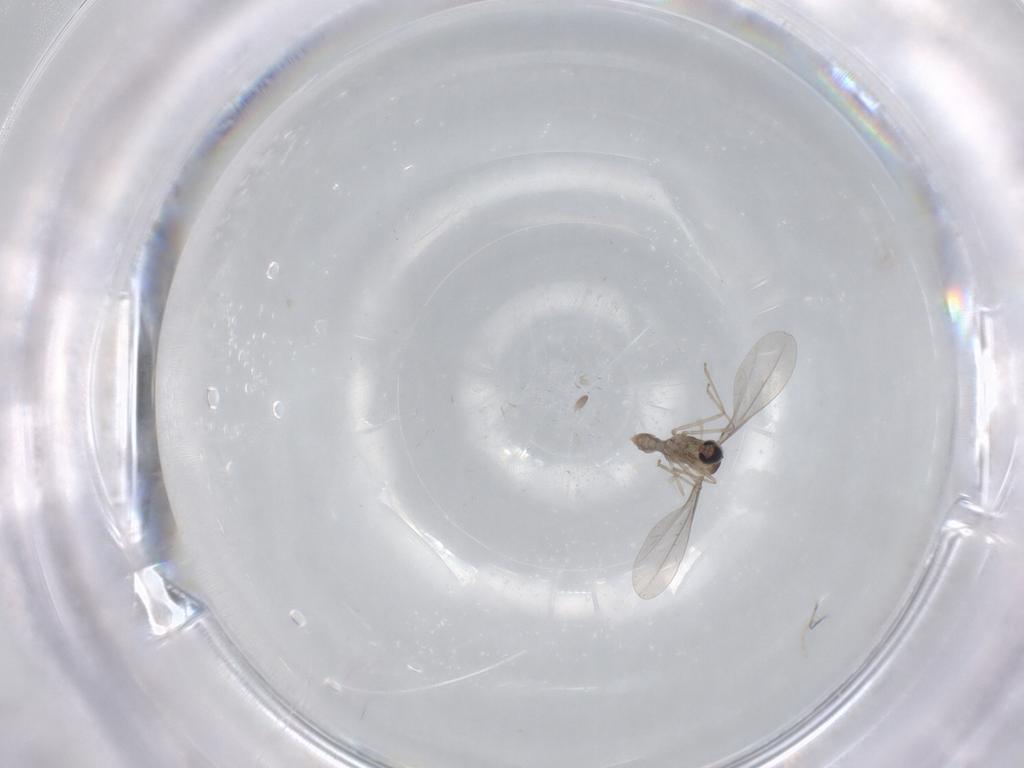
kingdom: Animalia
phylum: Arthropoda
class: Insecta
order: Diptera
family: Cecidomyiidae
